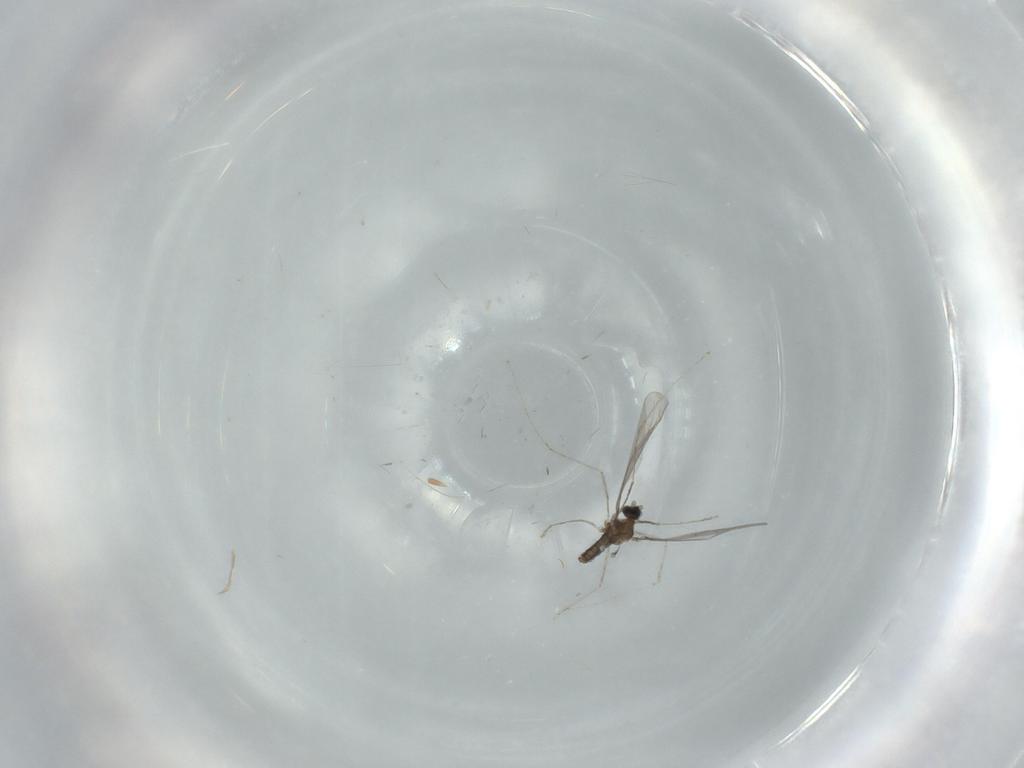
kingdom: Animalia
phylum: Arthropoda
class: Insecta
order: Diptera
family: Cecidomyiidae
